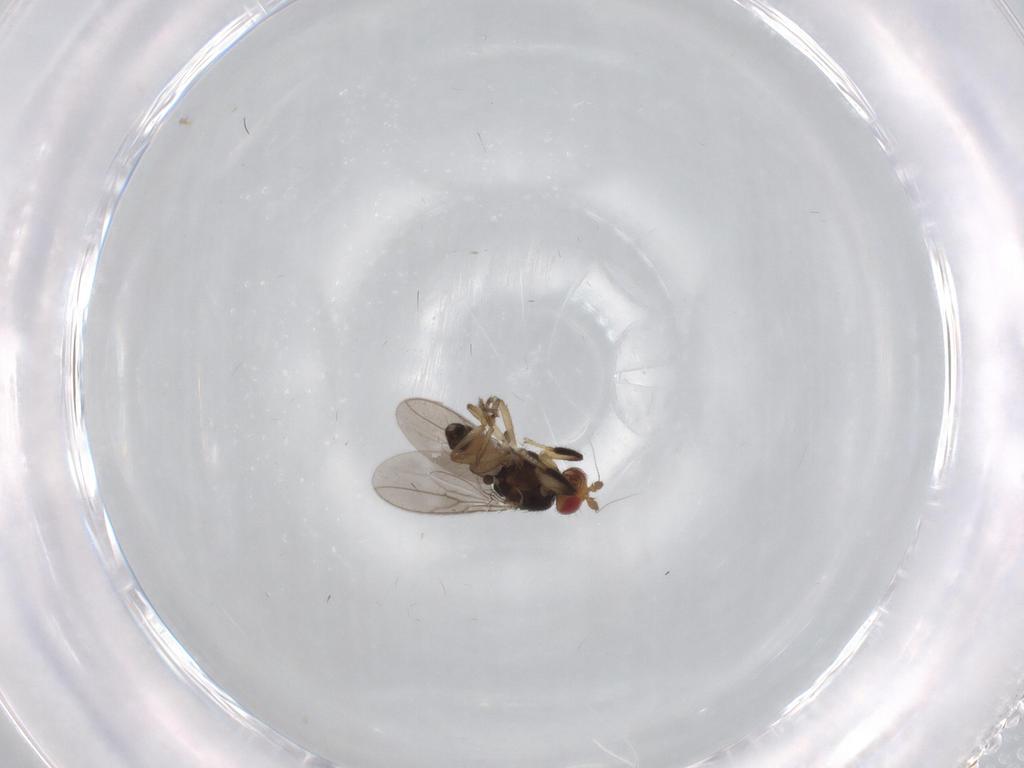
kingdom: Animalia
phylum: Arthropoda
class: Insecta
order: Diptera
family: Sphaeroceridae
